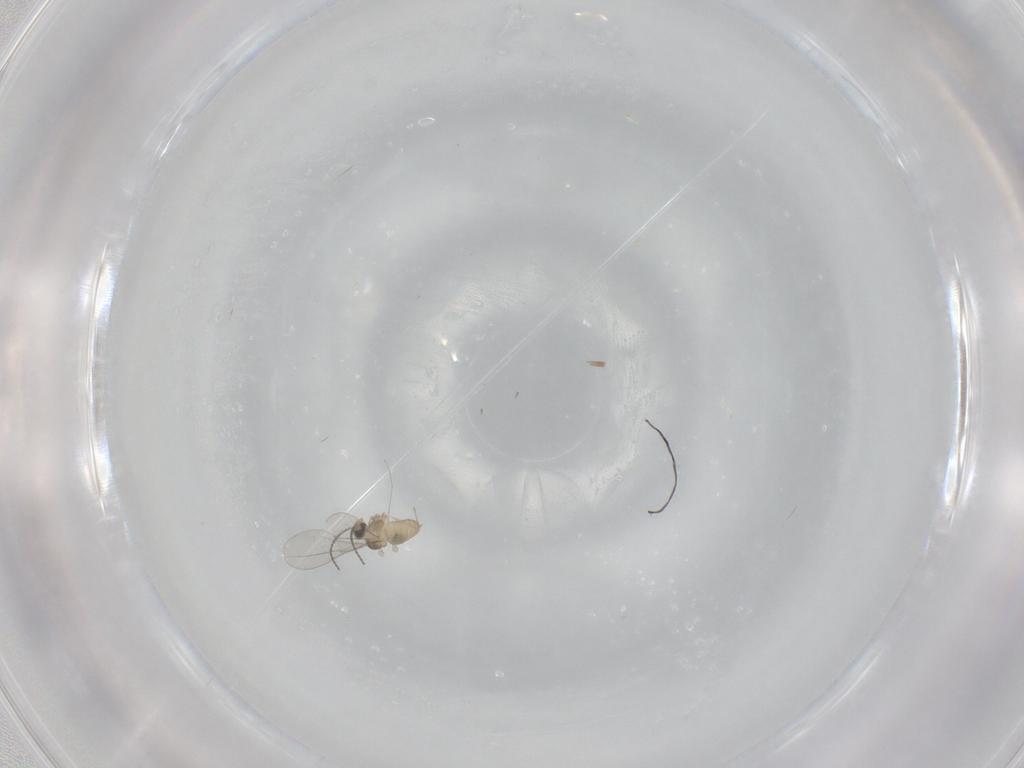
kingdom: Animalia
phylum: Arthropoda
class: Insecta
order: Diptera
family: Cecidomyiidae
